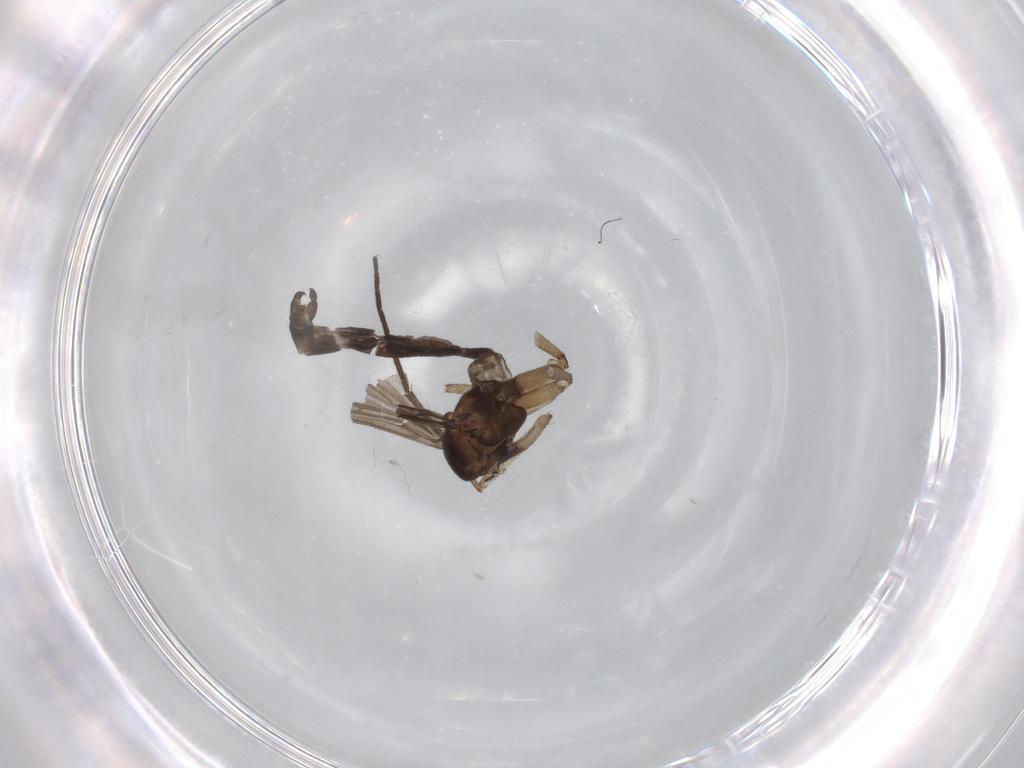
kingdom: Animalia
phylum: Arthropoda
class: Insecta
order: Diptera
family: Sciaridae
